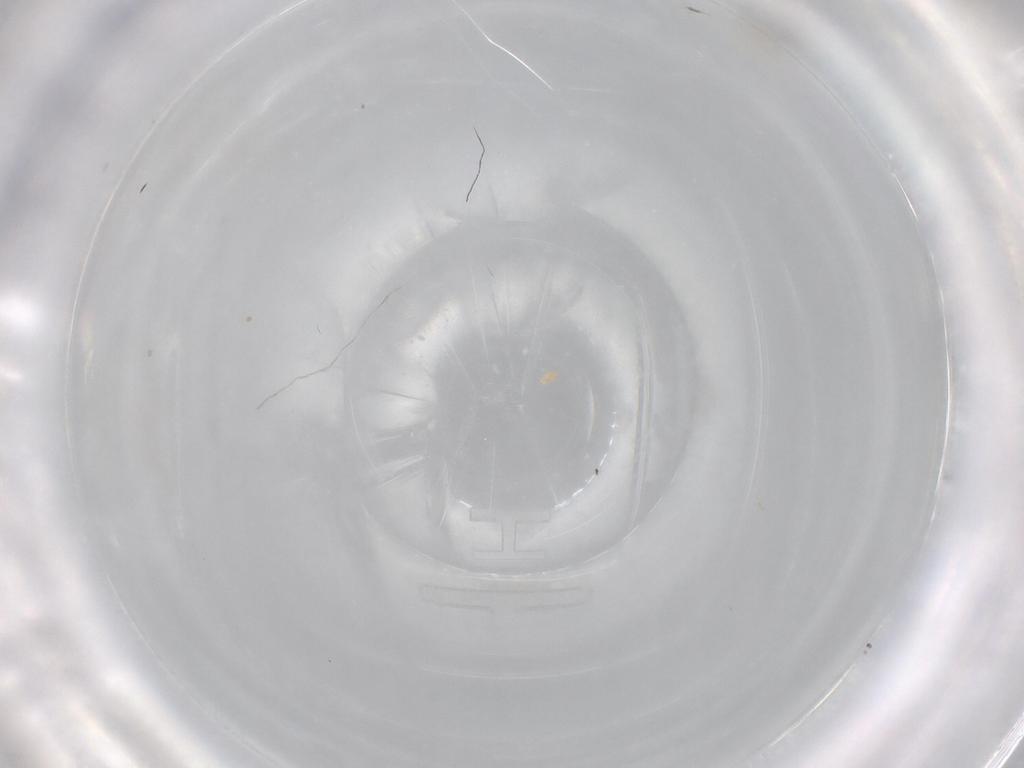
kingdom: Animalia
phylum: Arthropoda
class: Insecta
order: Diptera
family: Ceratopogonidae
